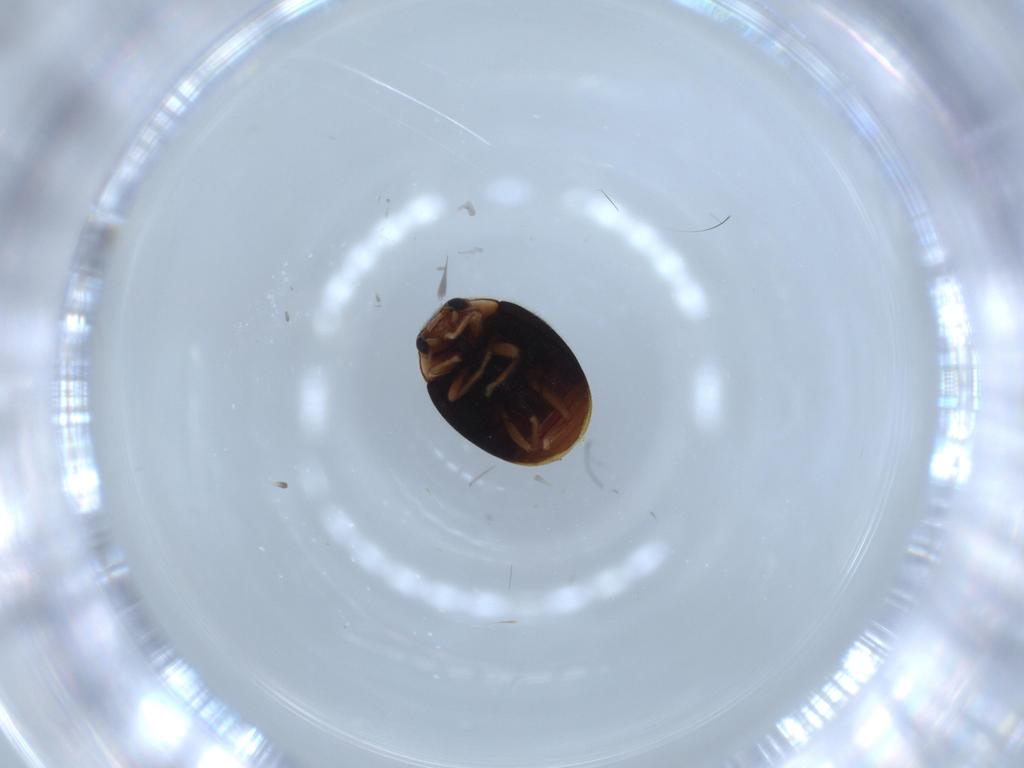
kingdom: Animalia
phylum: Arthropoda
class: Insecta
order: Coleoptera
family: Coccinellidae
